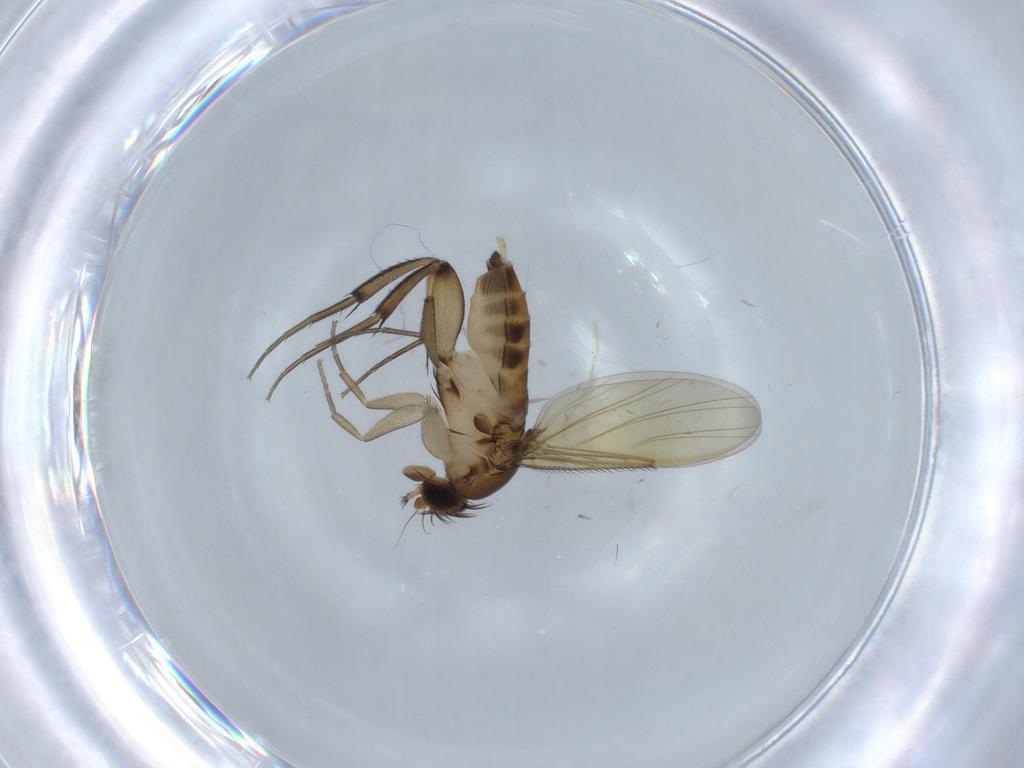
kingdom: Animalia
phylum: Arthropoda
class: Insecta
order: Diptera
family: Phoridae
